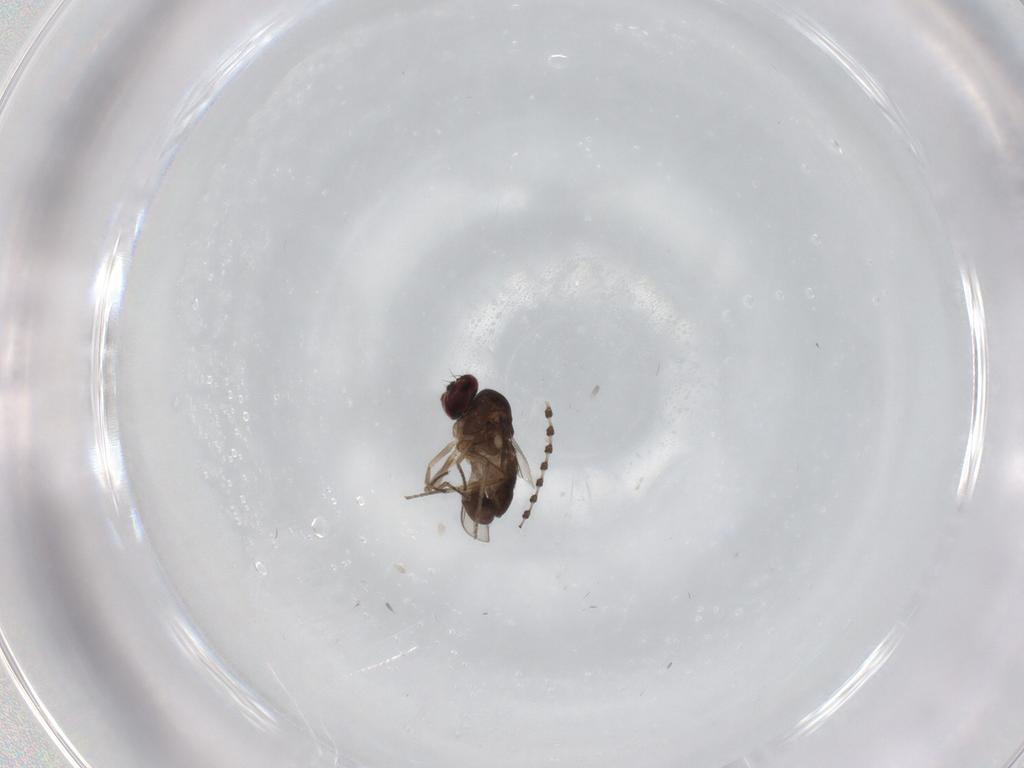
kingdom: Animalia
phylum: Arthropoda
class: Insecta
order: Diptera
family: Dolichopodidae
